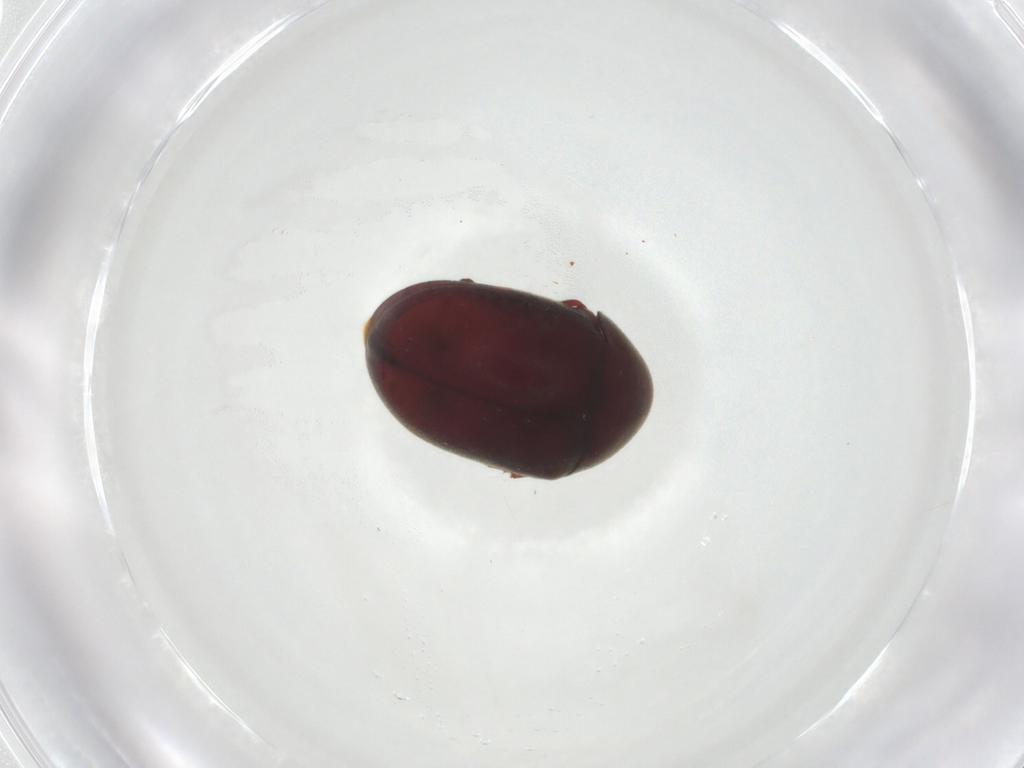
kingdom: Animalia
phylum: Arthropoda
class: Insecta
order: Coleoptera
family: Ptinidae
